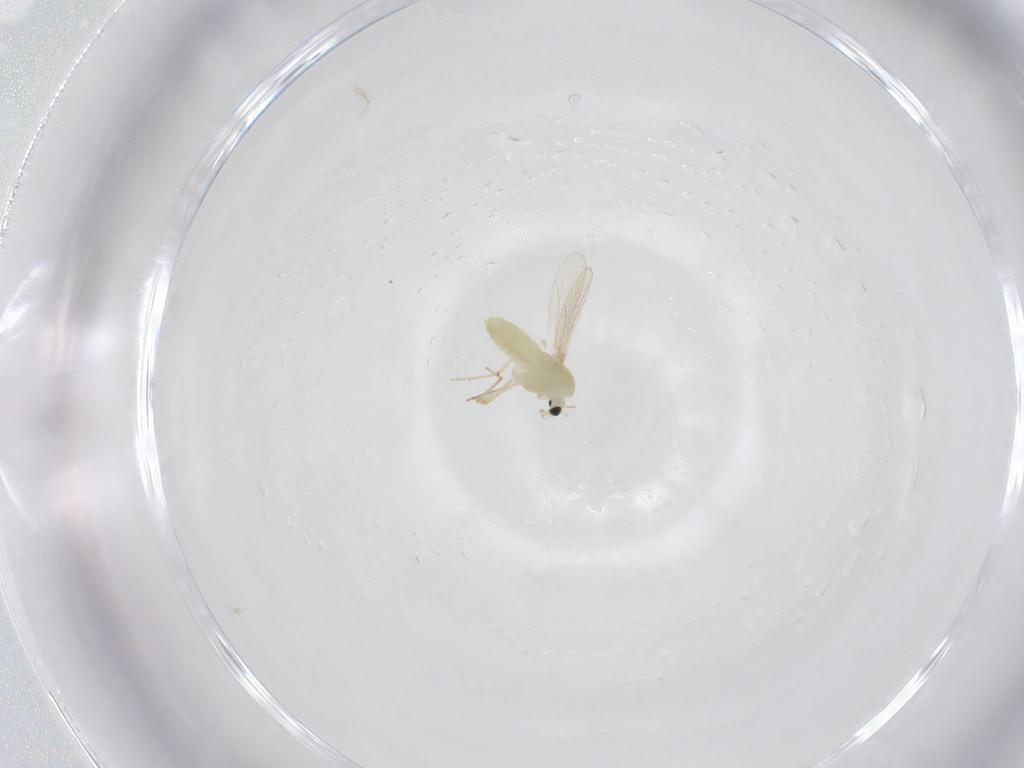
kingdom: Animalia
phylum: Arthropoda
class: Insecta
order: Diptera
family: Chironomidae
